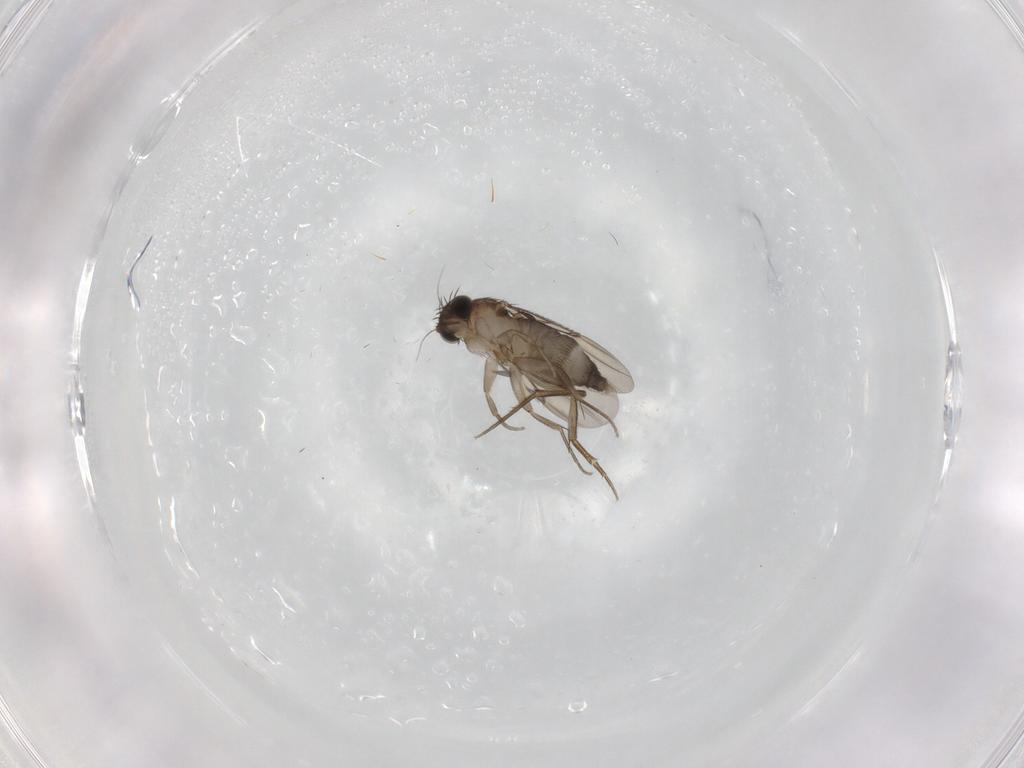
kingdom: Animalia
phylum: Arthropoda
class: Insecta
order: Diptera
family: Phoridae
